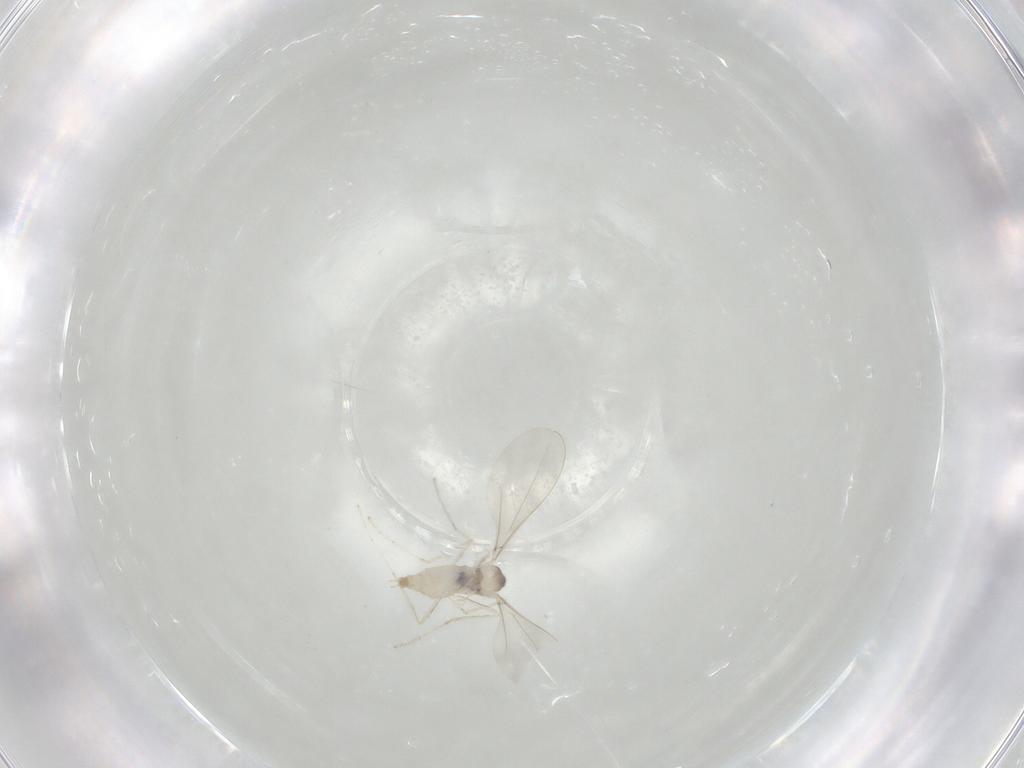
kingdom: Animalia
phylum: Arthropoda
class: Insecta
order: Diptera
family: Cecidomyiidae
